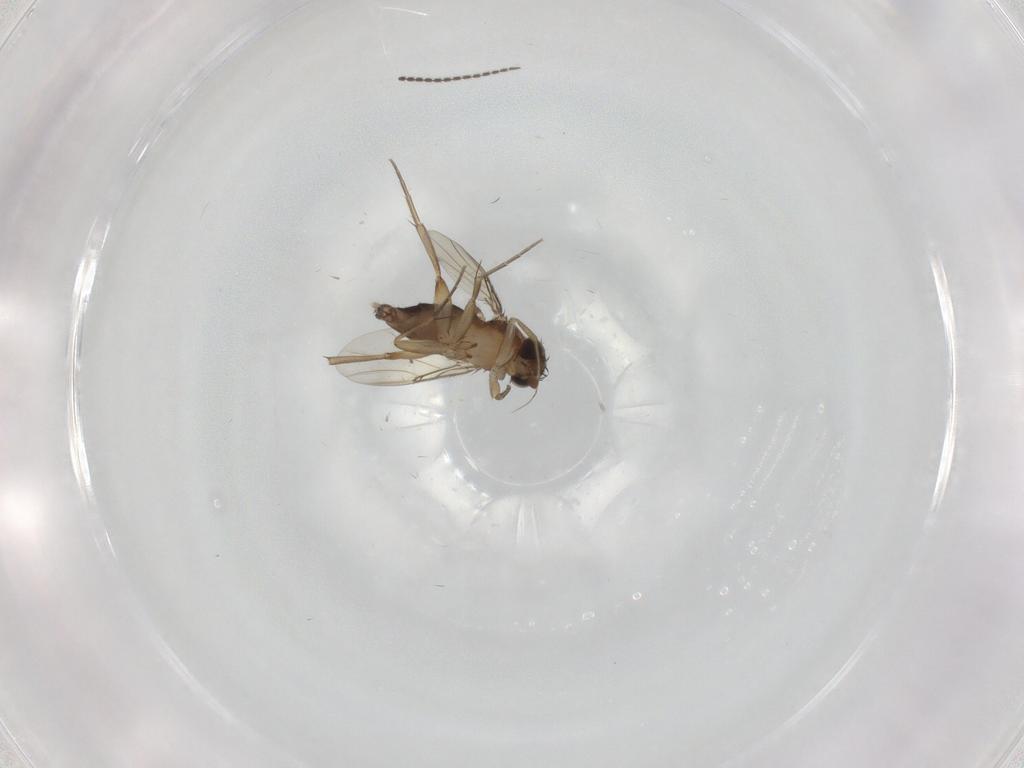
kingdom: Animalia
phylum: Arthropoda
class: Insecta
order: Diptera
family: Phoridae
